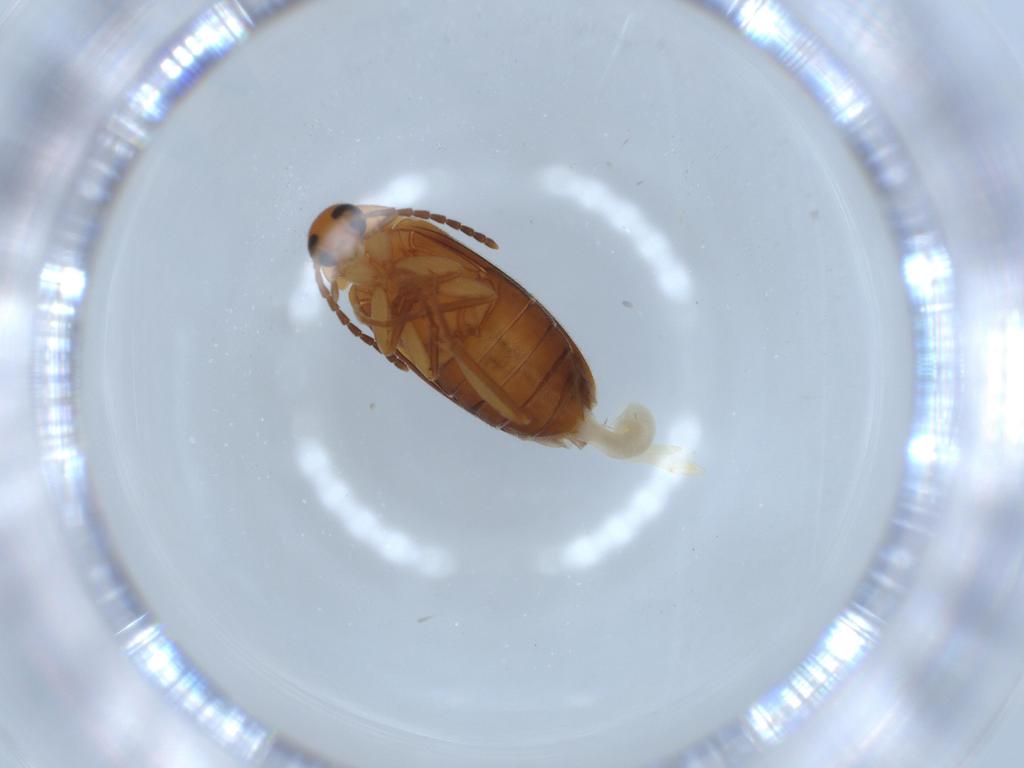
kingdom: Animalia
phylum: Arthropoda
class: Insecta
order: Coleoptera
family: Scraptiidae
